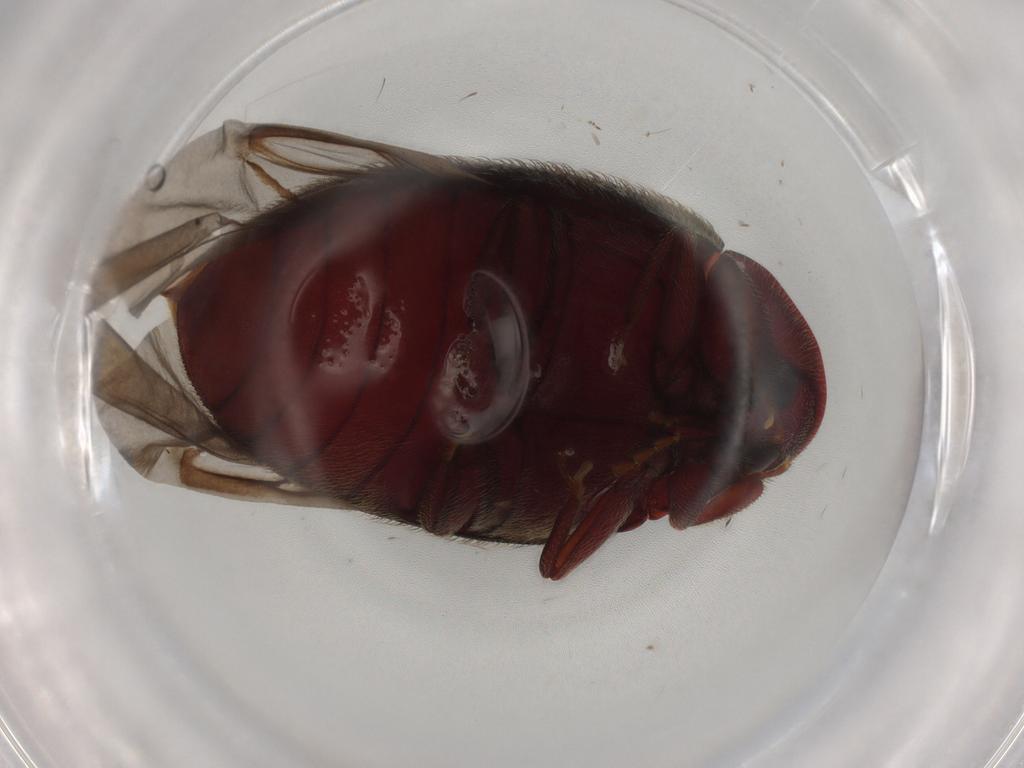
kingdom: Animalia
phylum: Arthropoda
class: Insecta
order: Coleoptera
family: Chelonariidae
